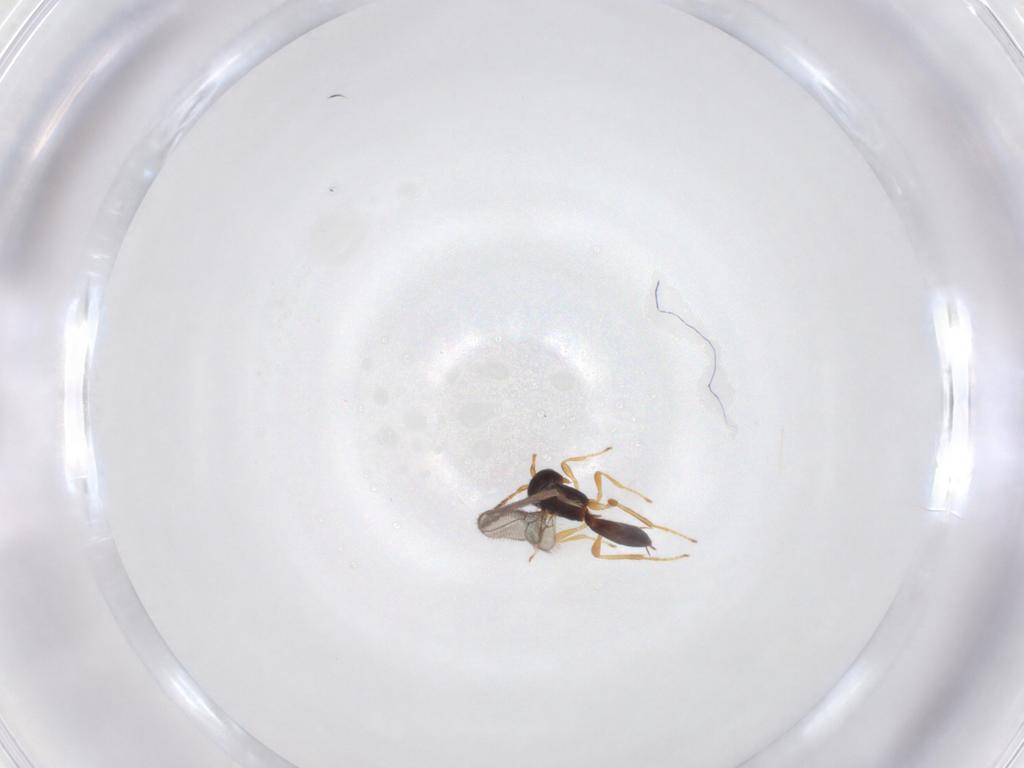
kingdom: Animalia
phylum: Arthropoda
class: Insecta
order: Hymenoptera
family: Braconidae
